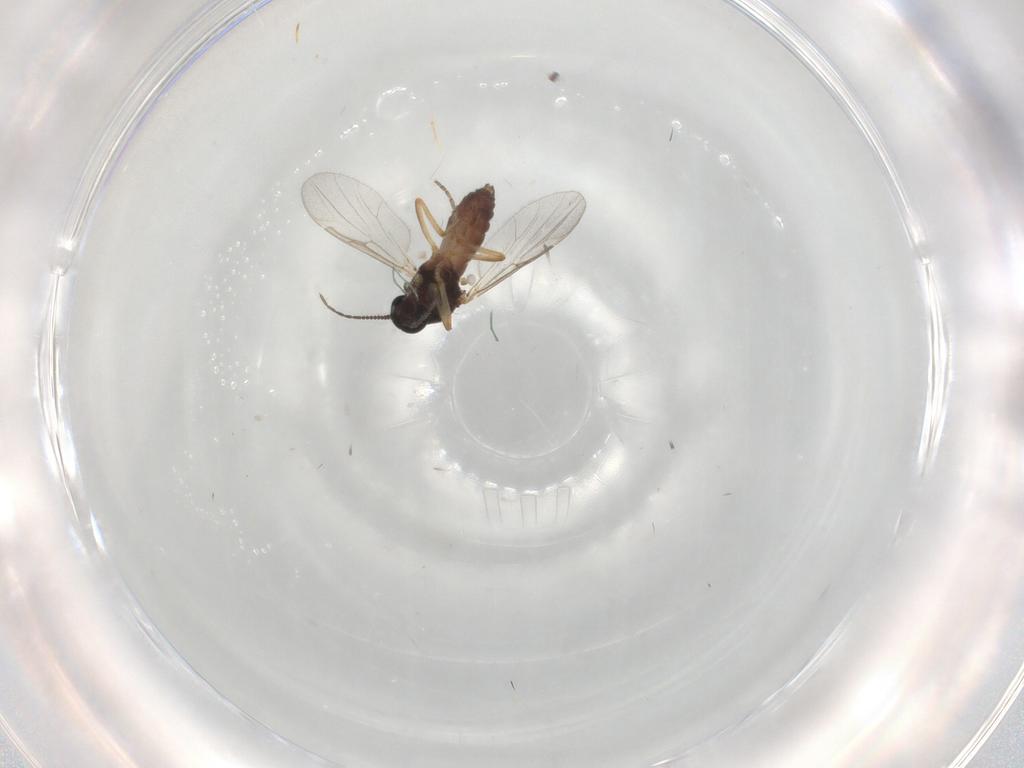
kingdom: Animalia
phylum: Arthropoda
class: Insecta
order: Diptera
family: Ceratopogonidae
